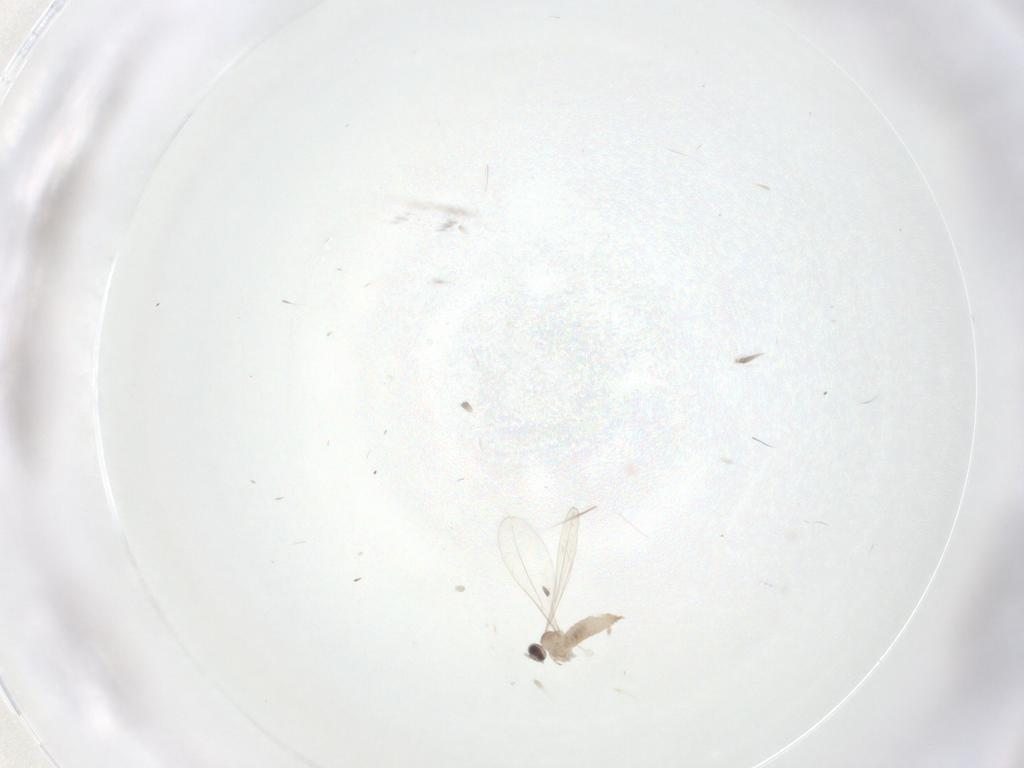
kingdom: Animalia
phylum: Arthropoda
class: Insecta
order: Diptera
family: Cecidomyiidae
